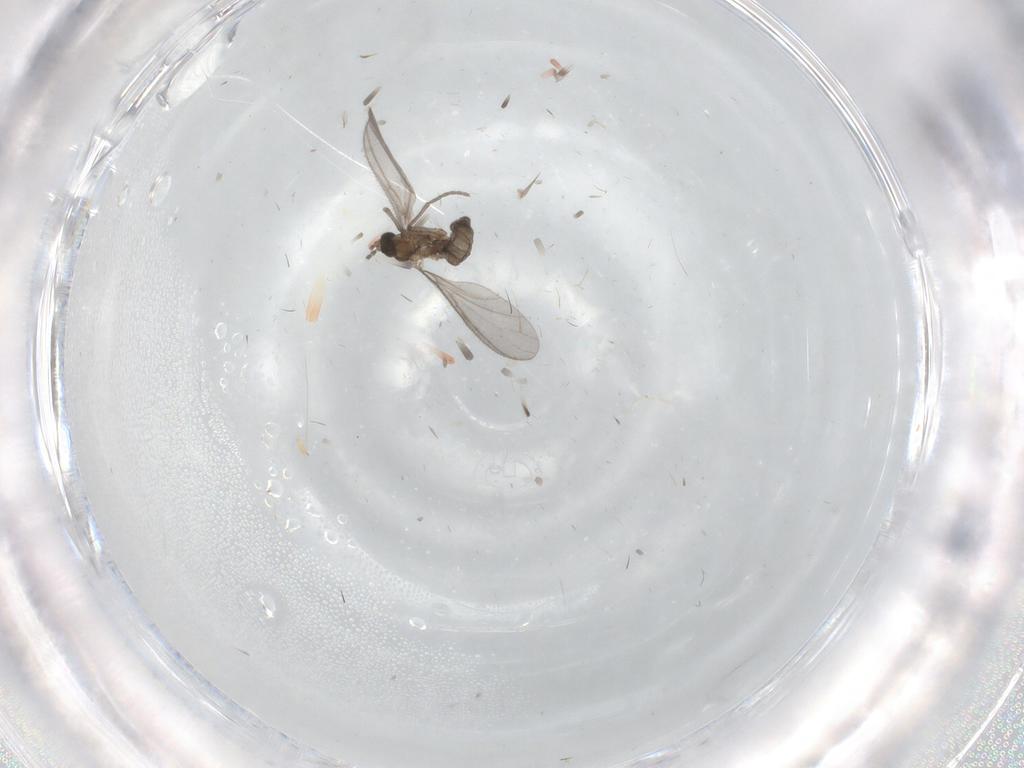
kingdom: Animalia
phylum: Arthropoda
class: Insecta
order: Diptera
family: Sciaridae
